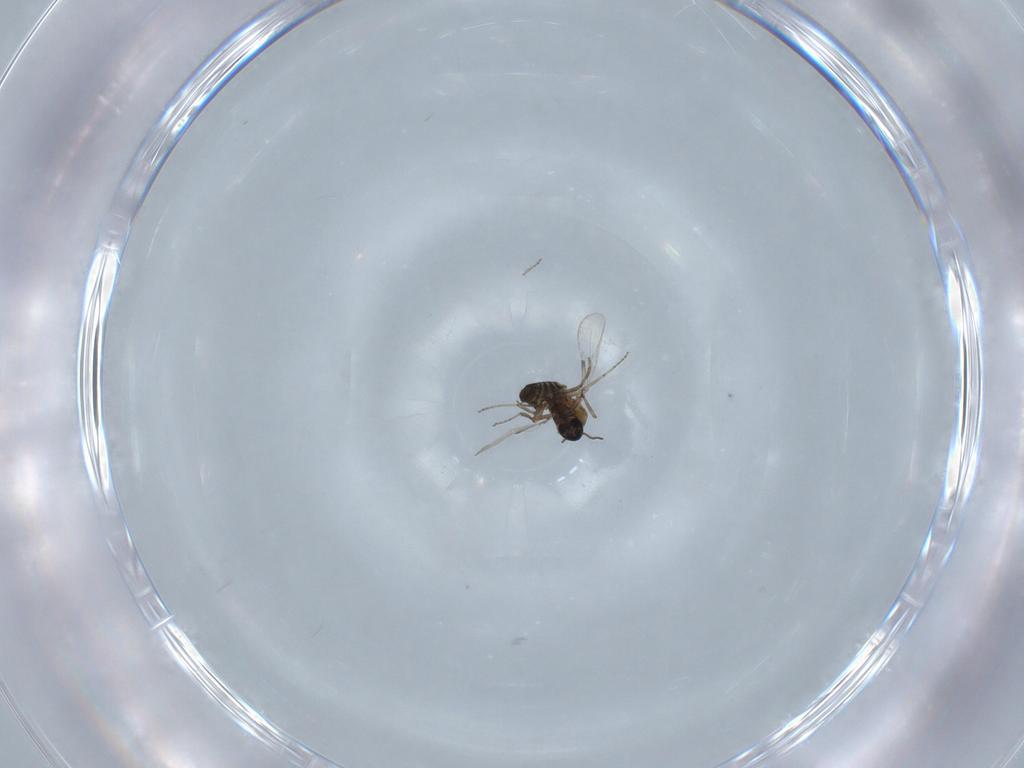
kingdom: Animalia
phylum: Arthropoda
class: Insecta
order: Diptera
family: Ceratopogonidae
